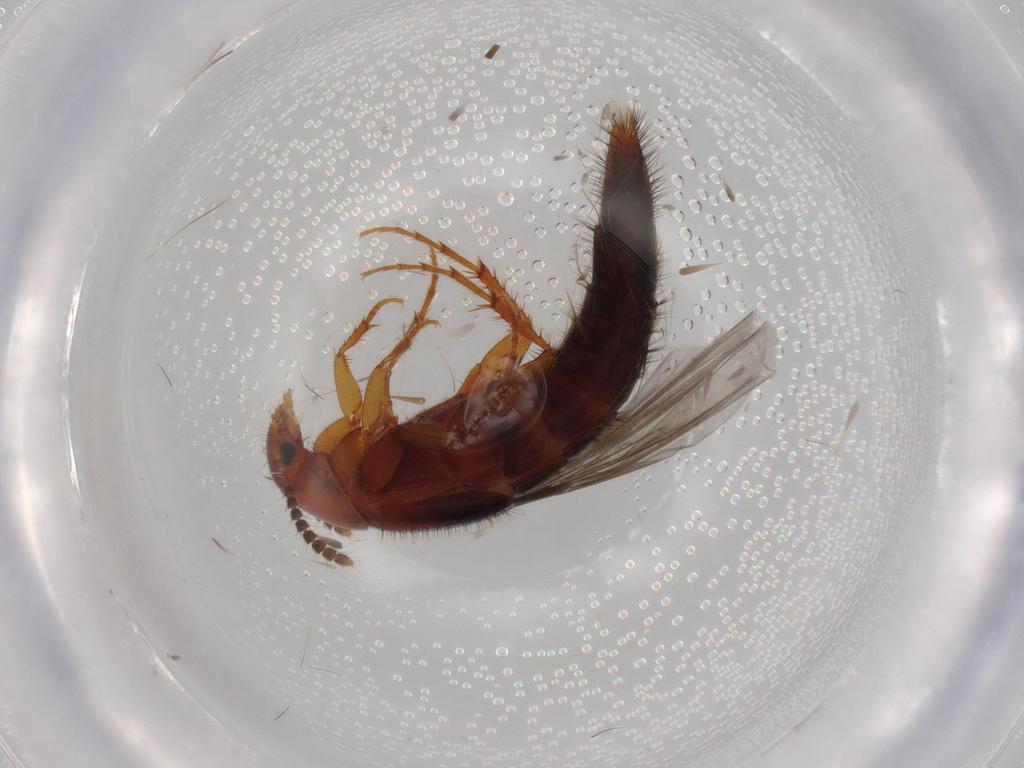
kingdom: Animalia
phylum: Arthropoda
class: Insecta
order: Coleoptera
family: Staphylinidae
